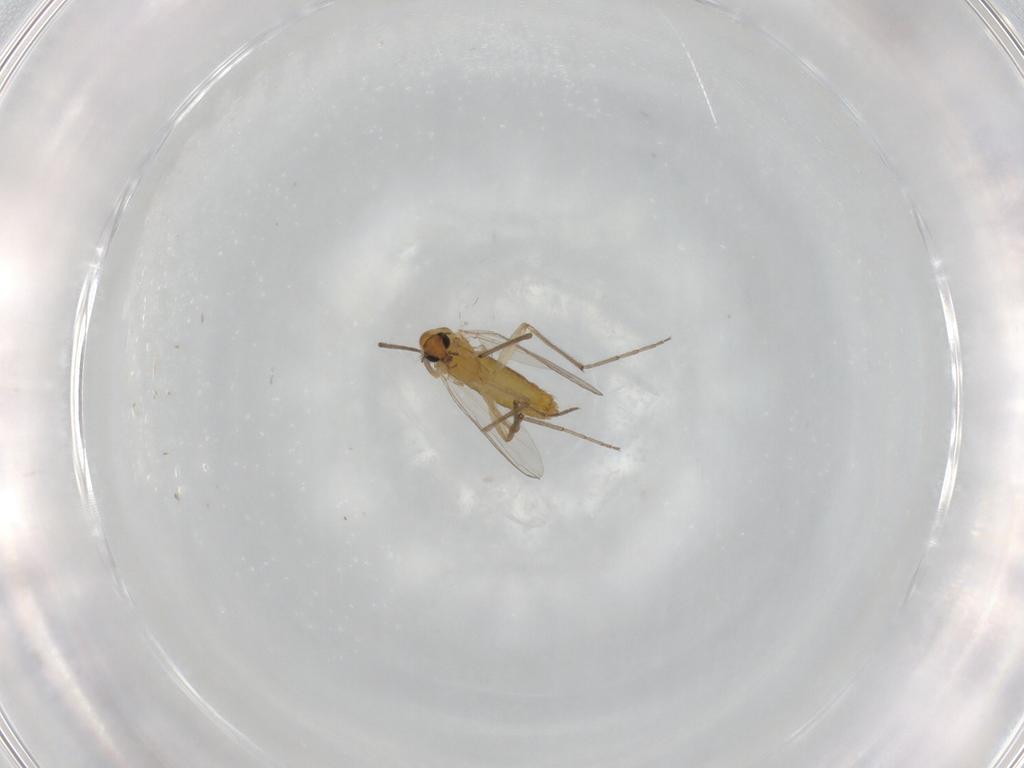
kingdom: Animalia
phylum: Arthropoda
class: Insecta
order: Diptera
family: Chironomidae
